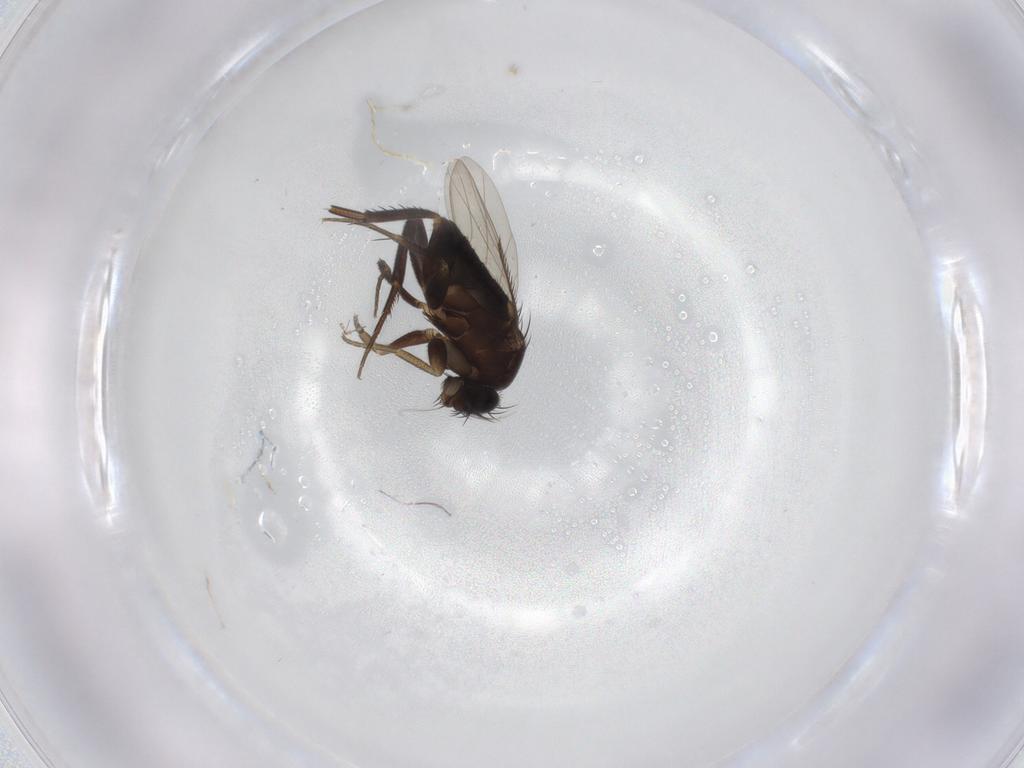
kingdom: Animalia
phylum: Arthropoda
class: Insecta
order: Diptera
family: Phoridae
